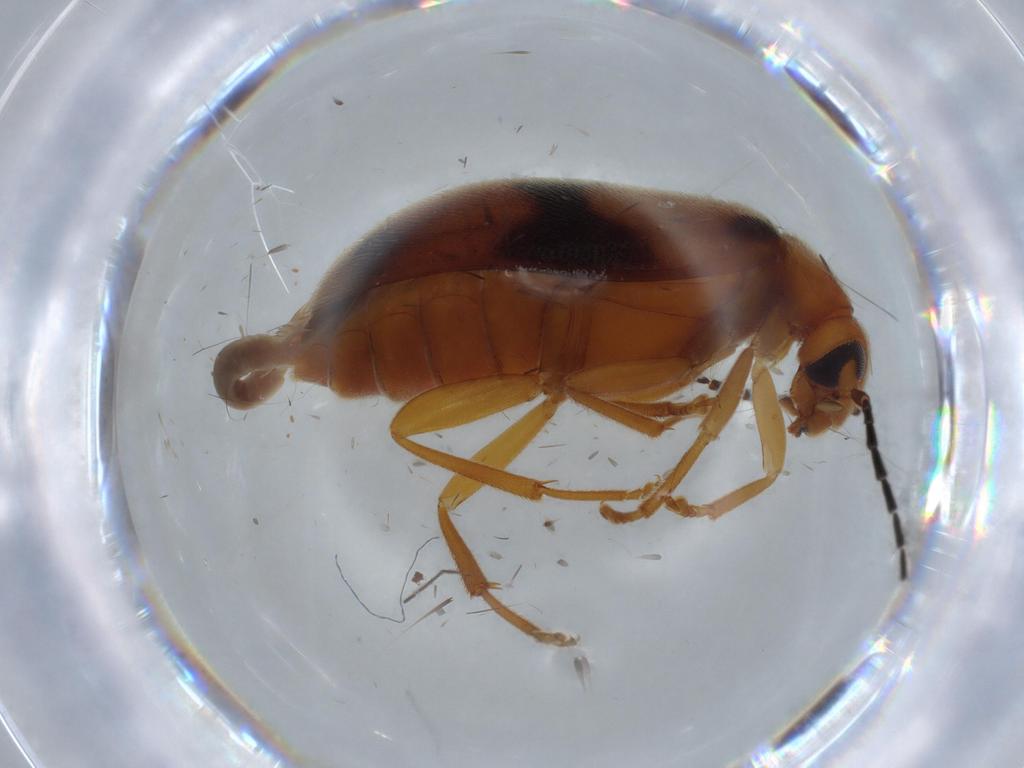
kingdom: Animalia
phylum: Arthropoda
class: Insecta
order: Coleoptera
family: Scraptiidae
